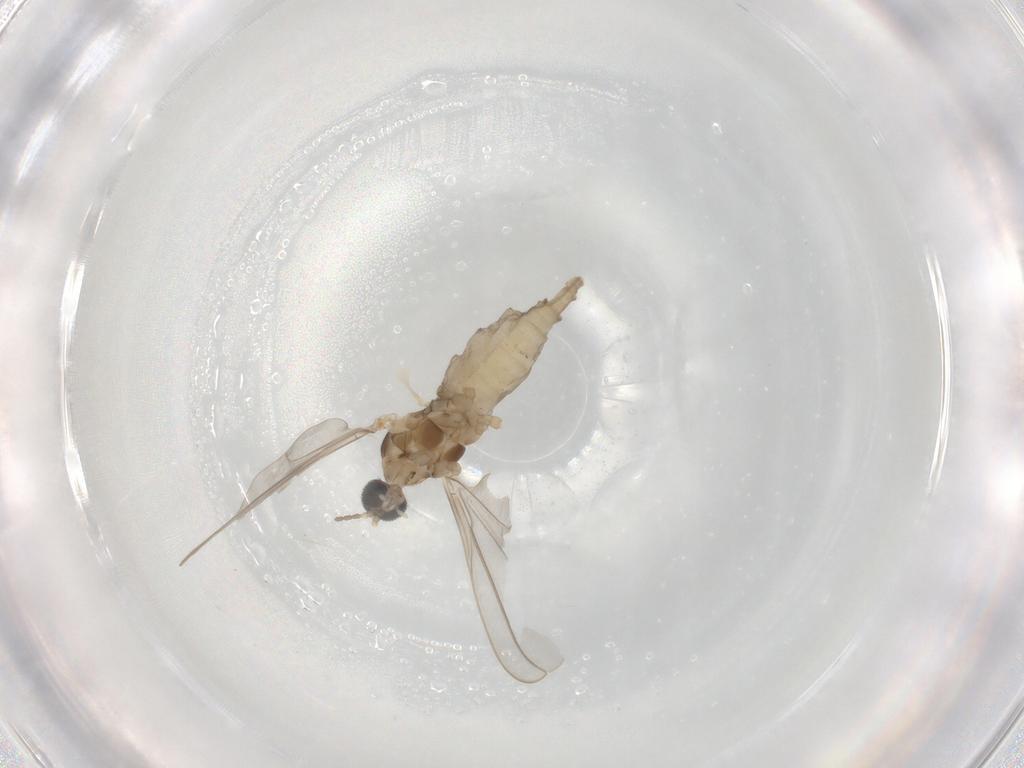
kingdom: Animalia
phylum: Arthropoda
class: Insecta
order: Diptera
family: Cecidomyiidae
